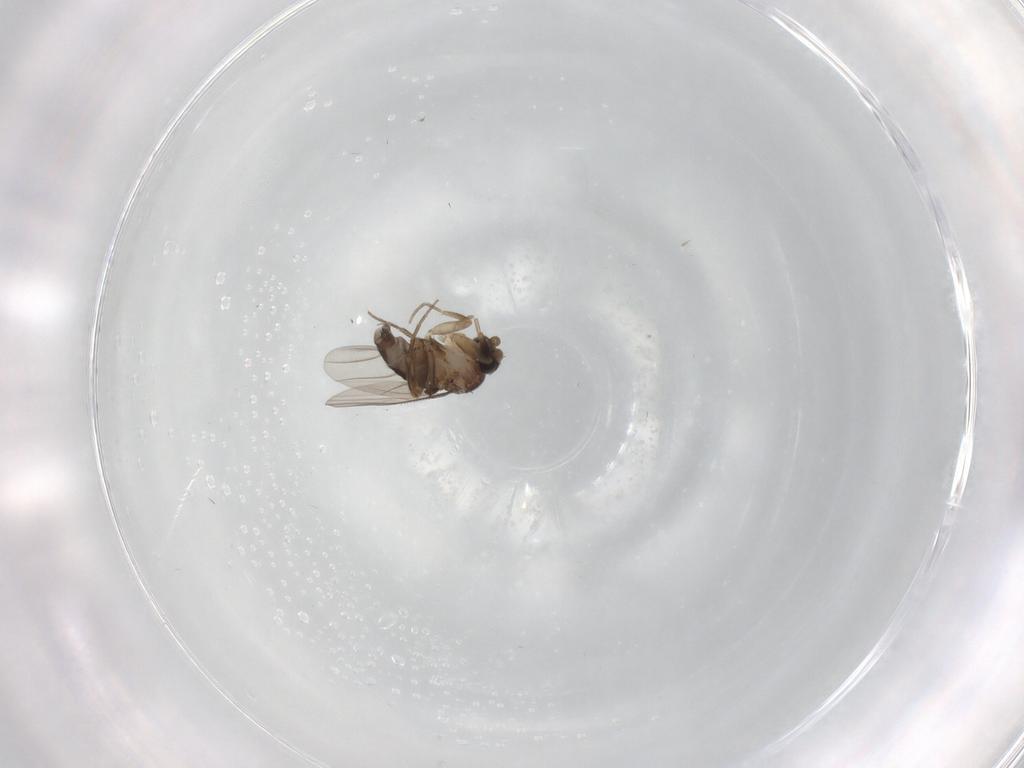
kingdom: Animalia
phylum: Arthropoda
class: Insecta
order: Diptera
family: Phoridae
